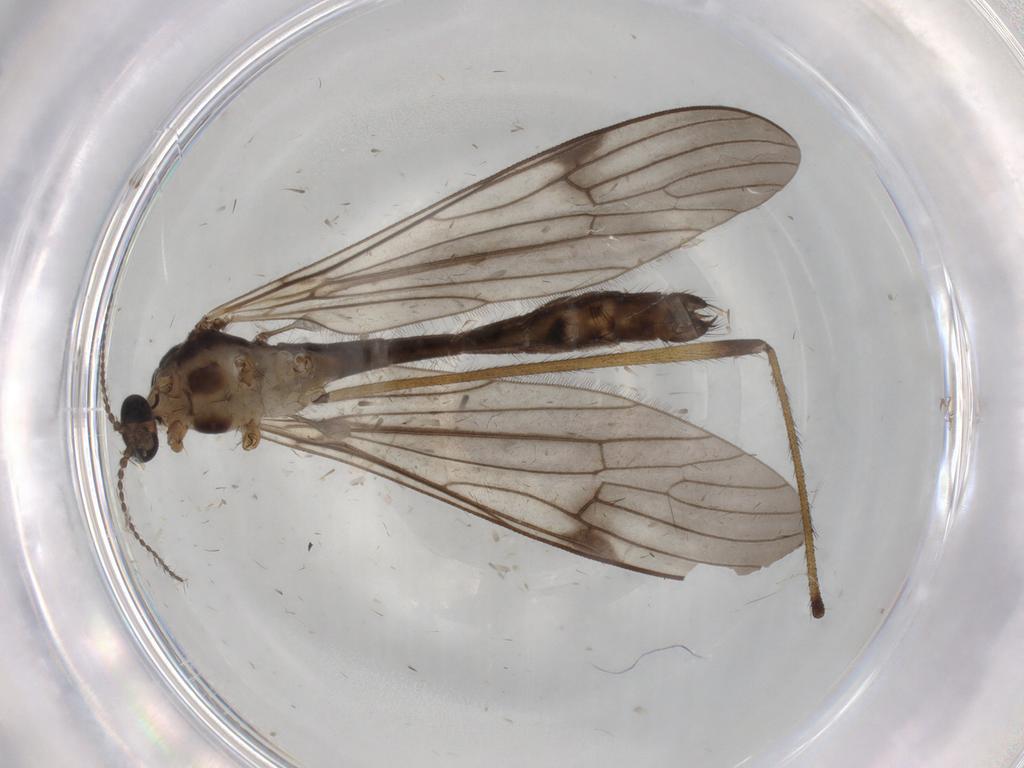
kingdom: Animalia
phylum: Arthropoda
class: Insecta
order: Diptera
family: Limoniidae
